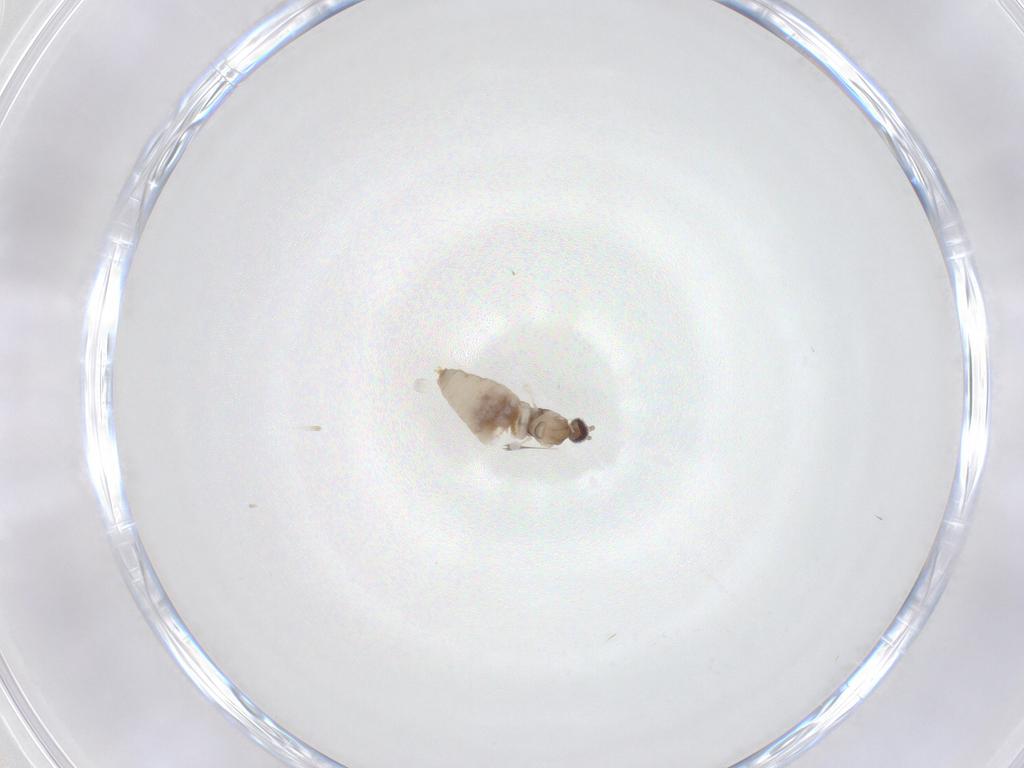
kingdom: Animalia
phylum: Arthropoda
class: Insecta
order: Diptera
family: Cecidomyiidae
